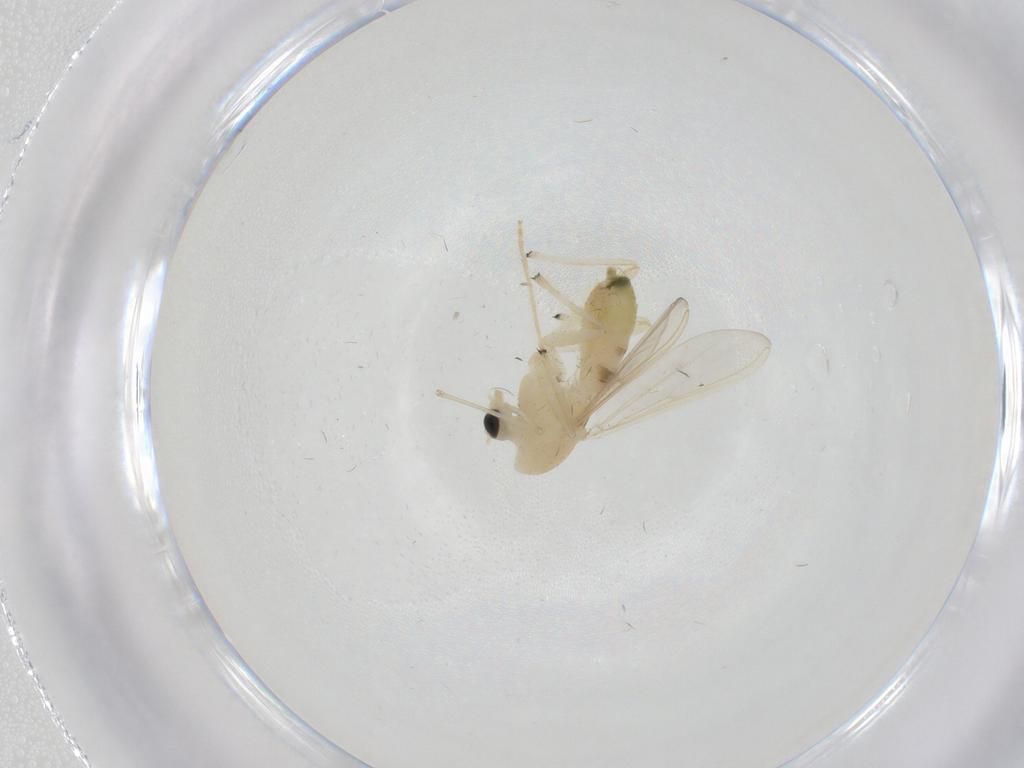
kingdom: Animalia
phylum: Arthropoda
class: Insecta
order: Diptera
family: Chironomidae
